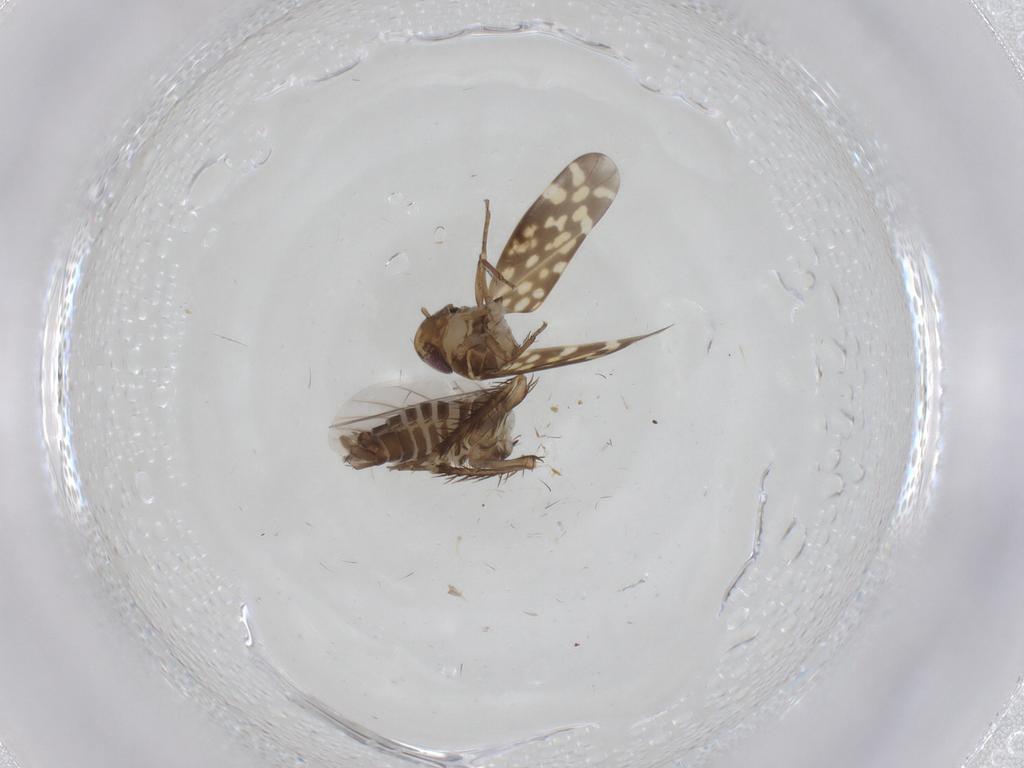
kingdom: Animalia
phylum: Arthropoda
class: Insecta
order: Hemiptera
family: Cicadellidae
